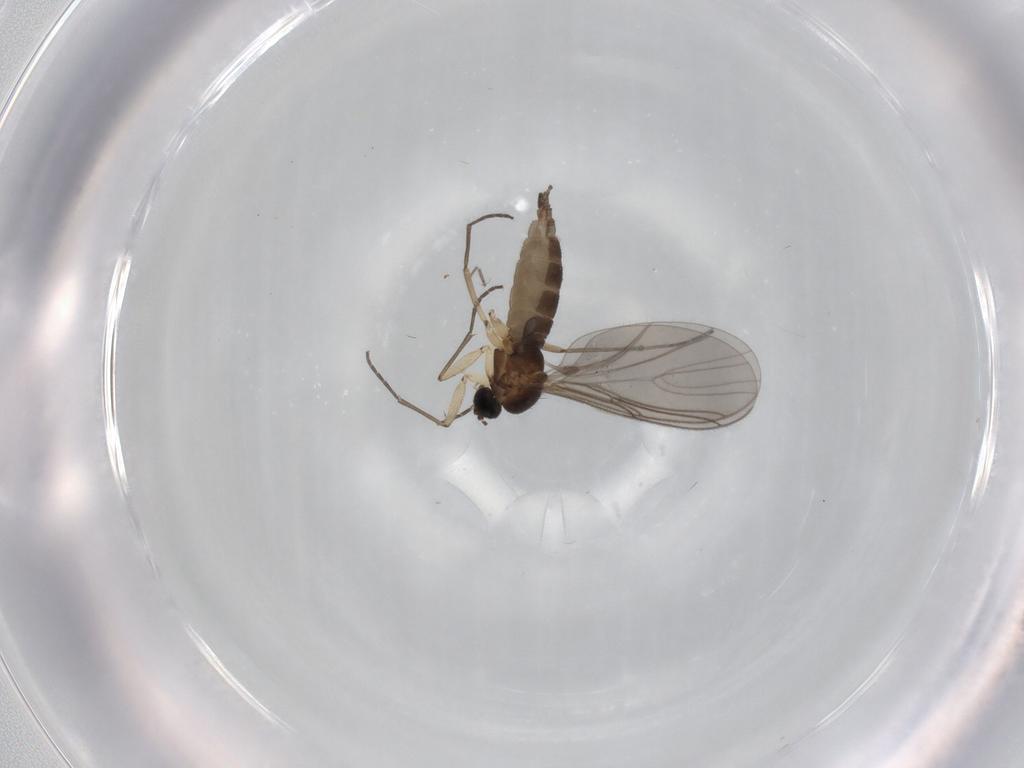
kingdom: Animalia
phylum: Arthropoda
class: Insecta
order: Diptera
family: Sciaridae
